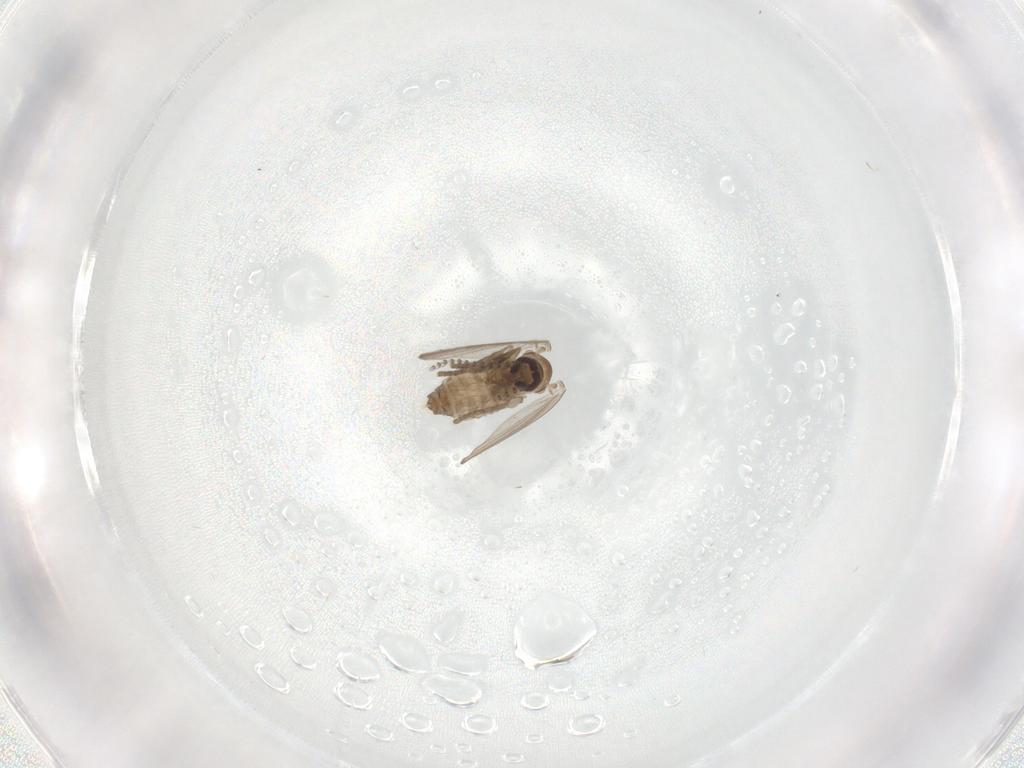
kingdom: Animalia
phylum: Arthropoda
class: Insecta
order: Diptera
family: Psychodidae
